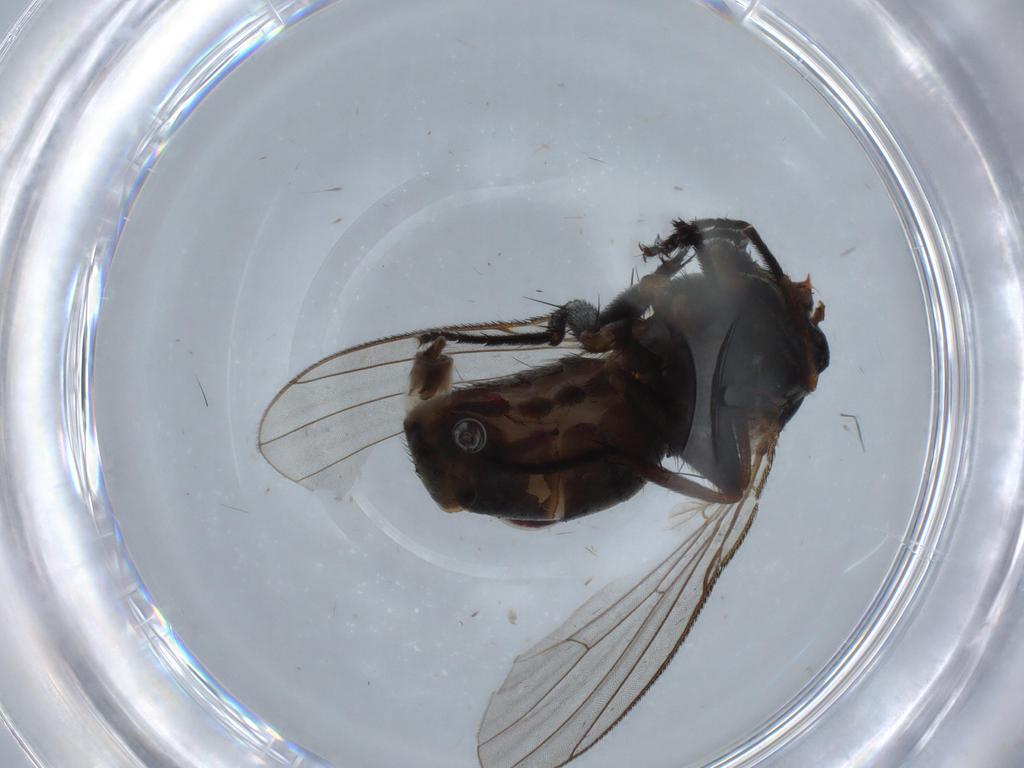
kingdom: Animalia
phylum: Arthropoda
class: Insecta
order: Diptera
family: Muscidae
